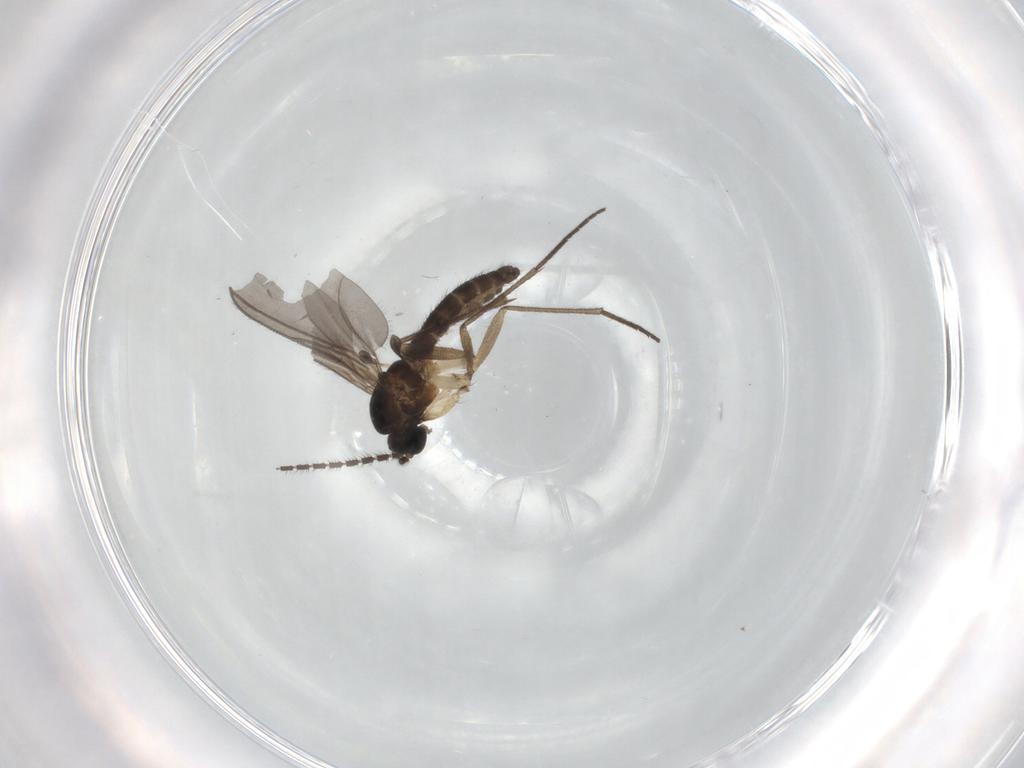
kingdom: Animalia
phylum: Arthropoda
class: Insecta
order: Diptera
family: Sciaridae
